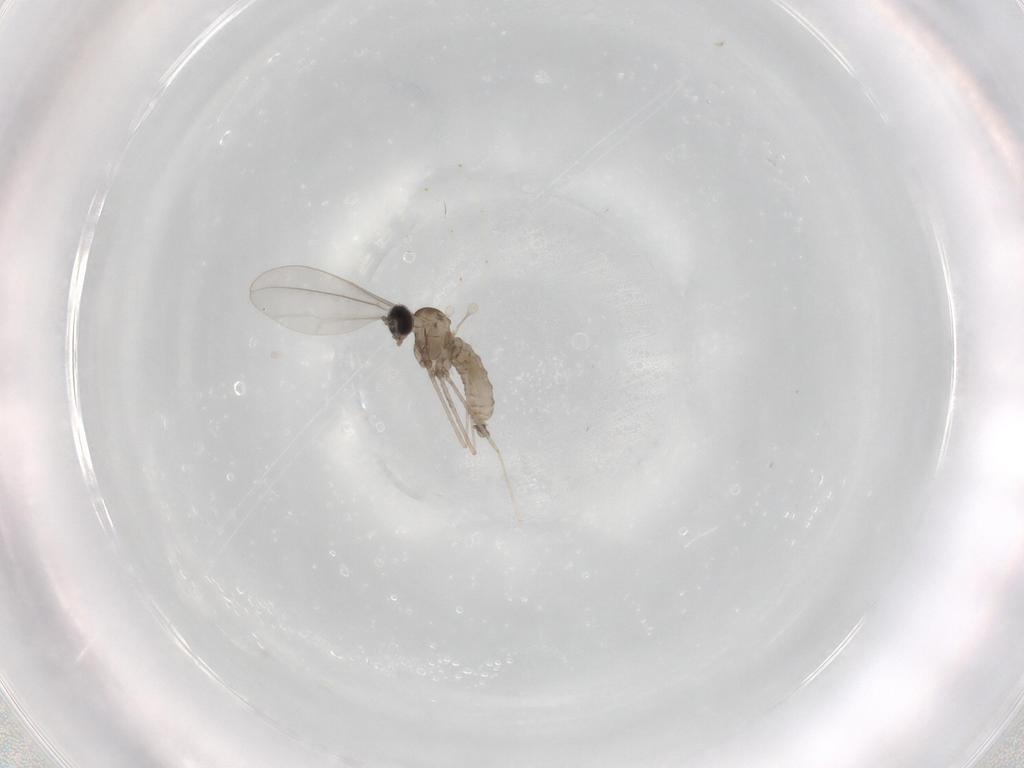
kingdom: Animalia
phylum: Arthropoda
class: Insecta
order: Diptera
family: Cecidomyiidae
